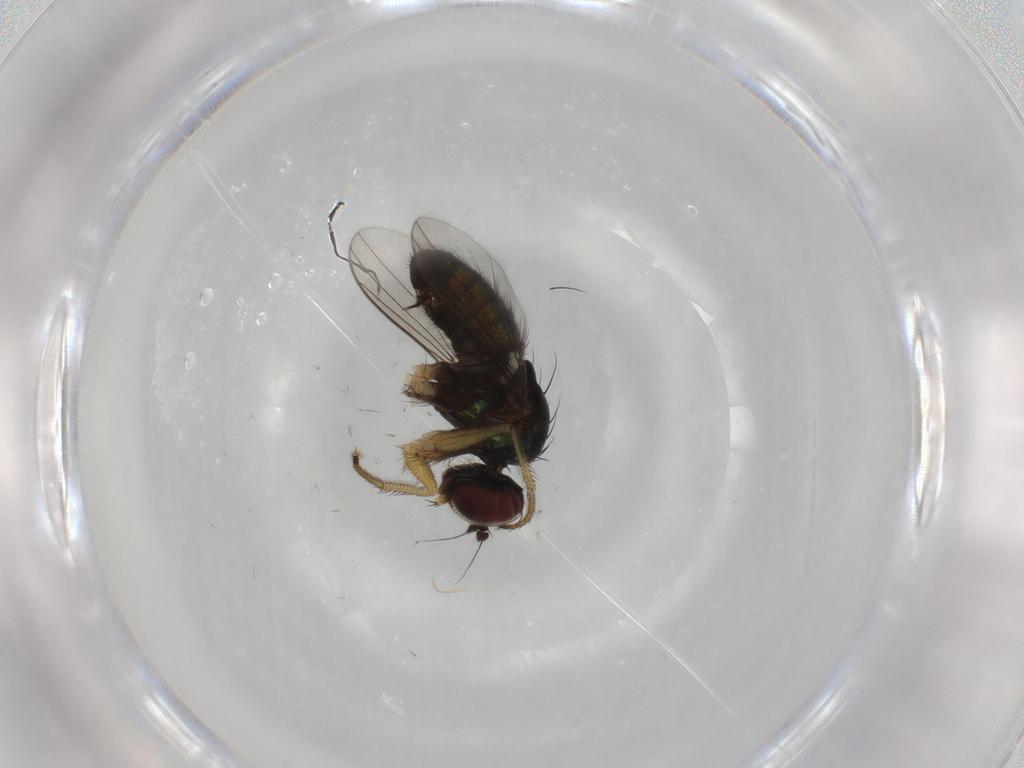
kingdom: Animalia
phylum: Arthropoda
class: Insecta
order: Diptera
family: Dolichopodidae
